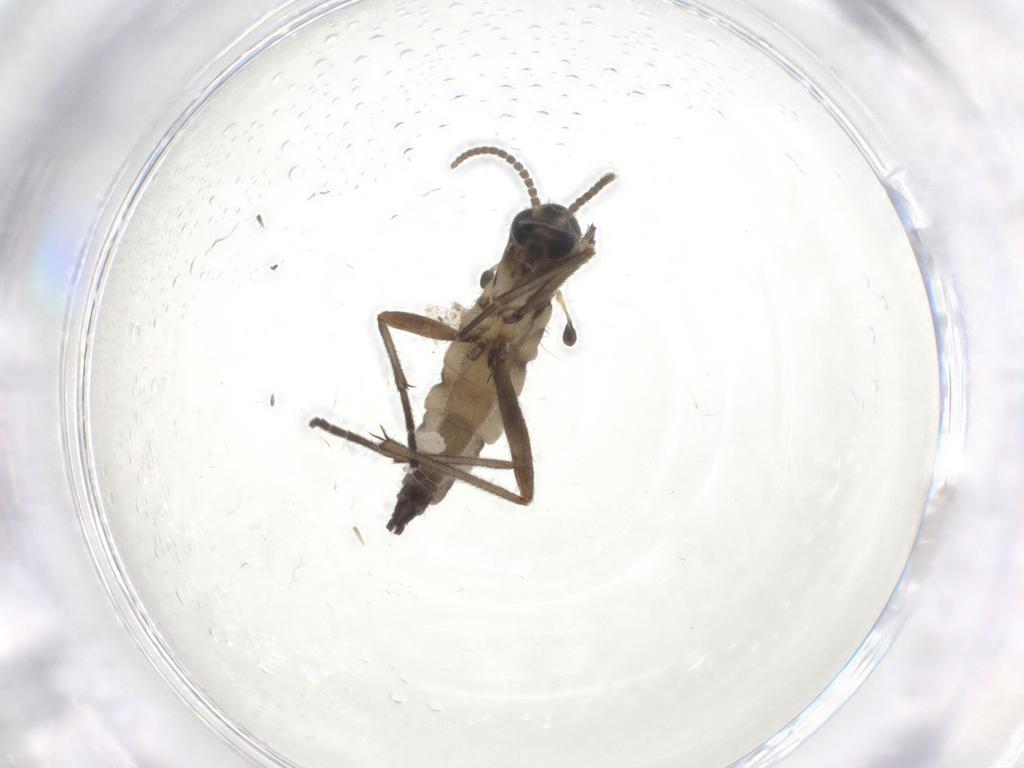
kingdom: Animalia
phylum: Arthropoda
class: Insecta
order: Diptera
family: Sciaridae
